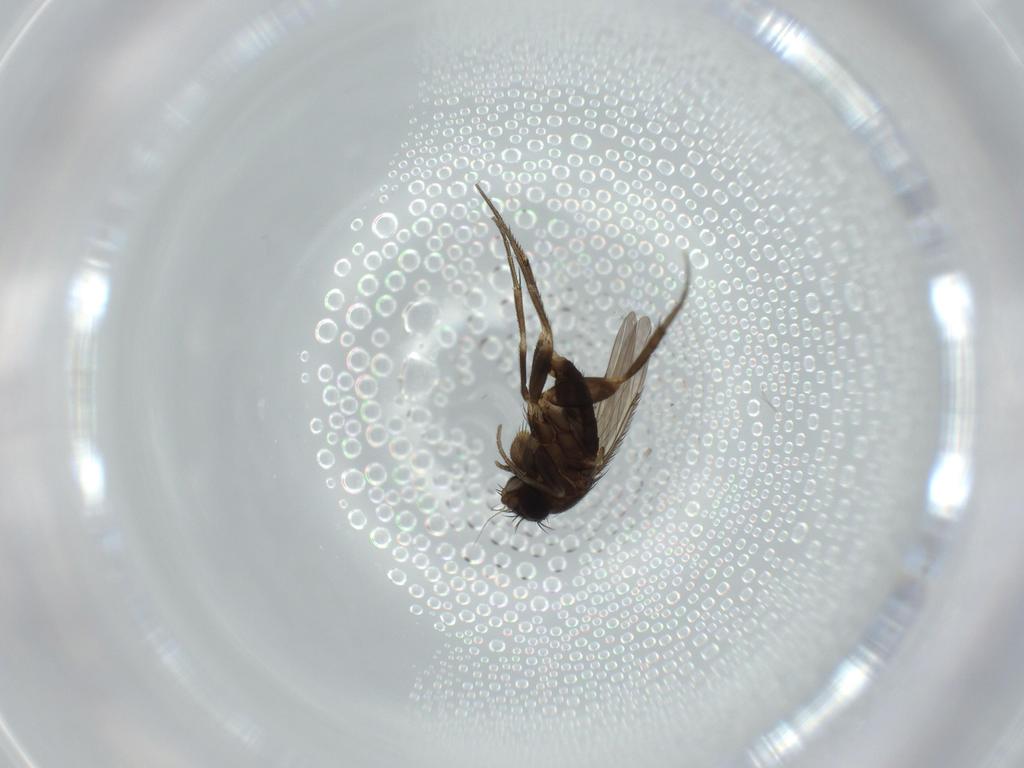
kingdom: Animalia
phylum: Arthropoda
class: Insecta
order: Diptera
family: Phoridae
